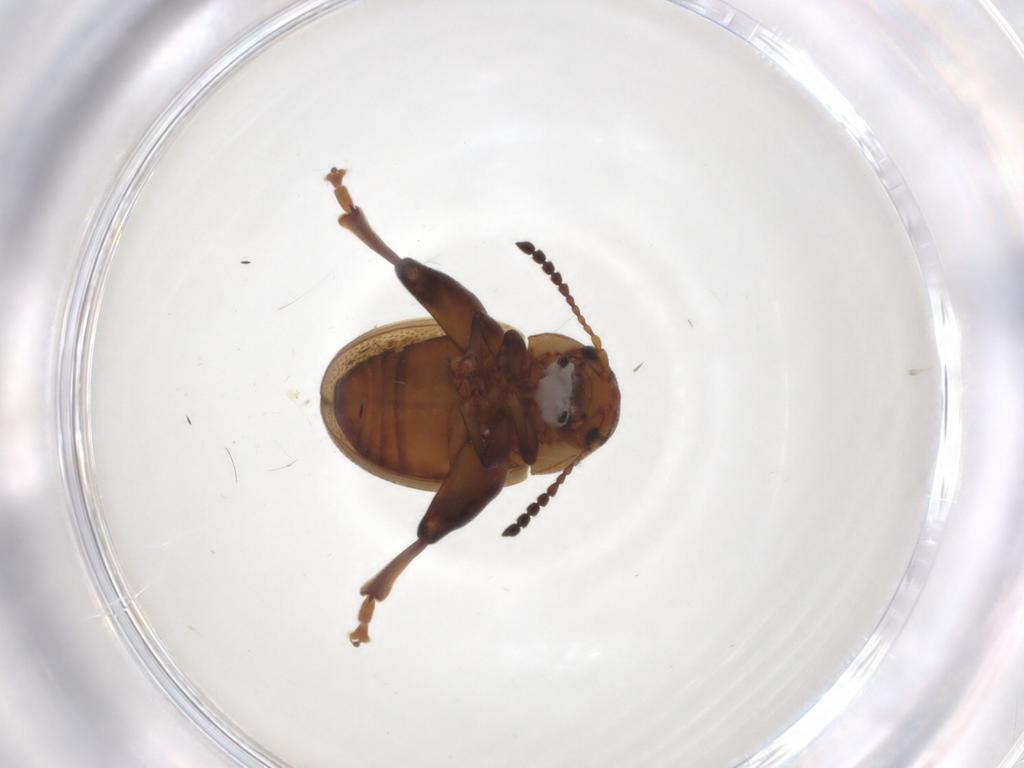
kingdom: Animalia
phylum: Arthropoda
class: Insecta
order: Coleoptera
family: Chrysomelidae
